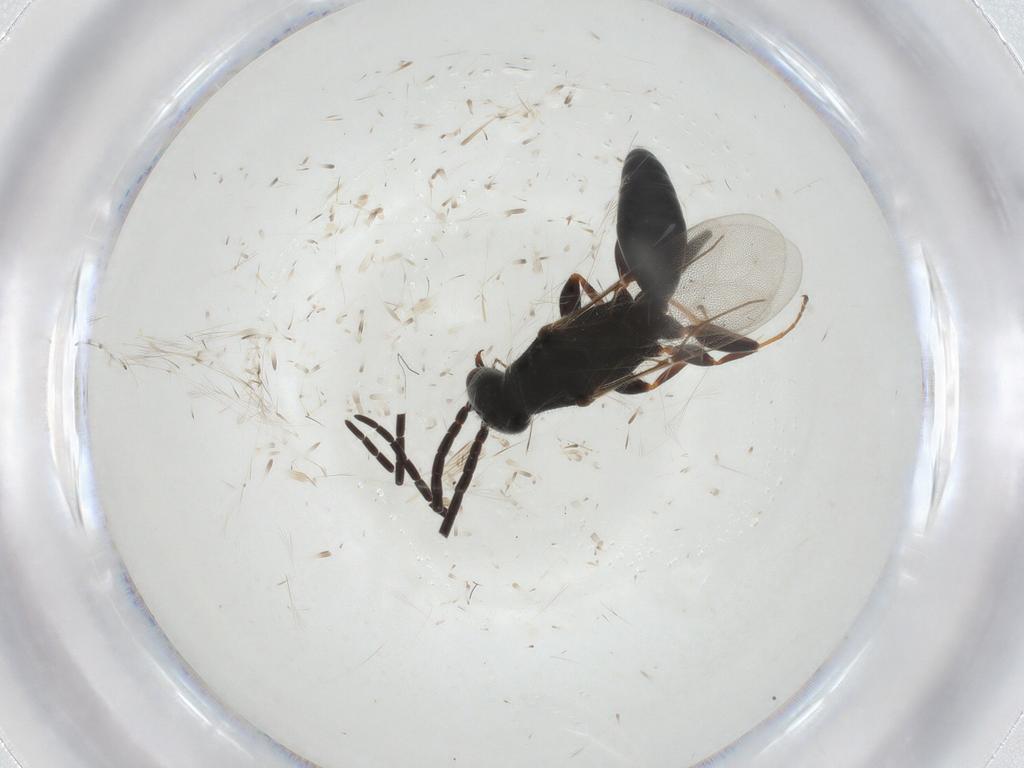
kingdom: Animalia
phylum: Arthropoda
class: Insecta
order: Hymenoptera
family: Bethylidae
